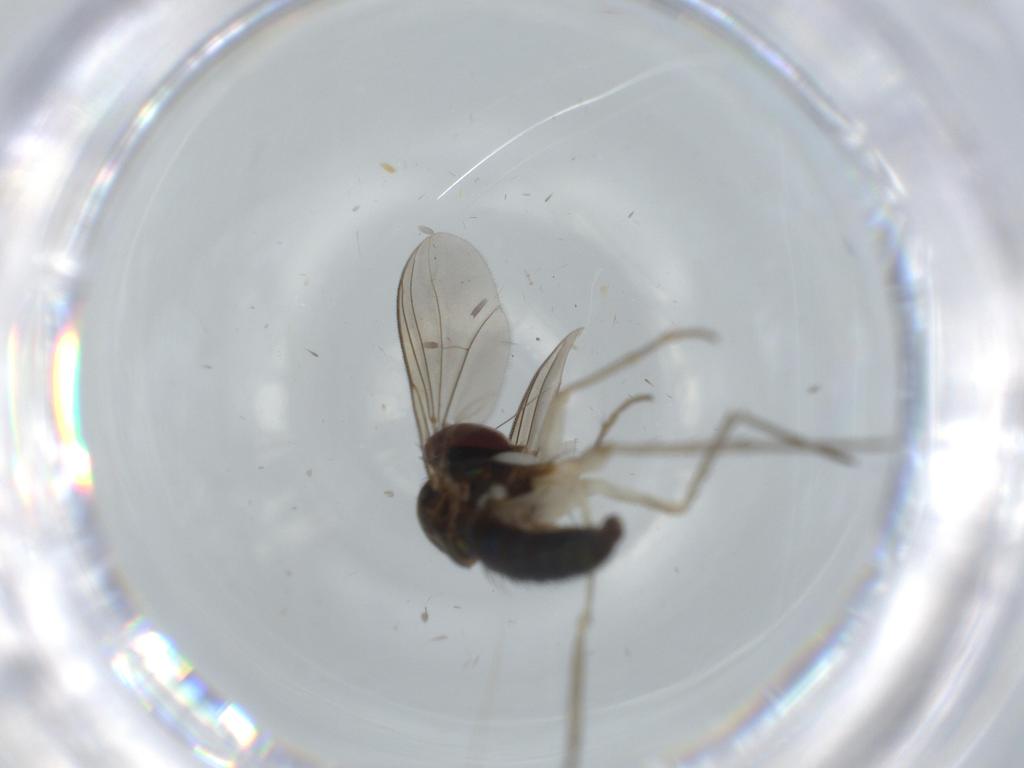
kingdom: Animalia
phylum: Arthropoda
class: Insecta
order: Diptera
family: Dolichopodidae
